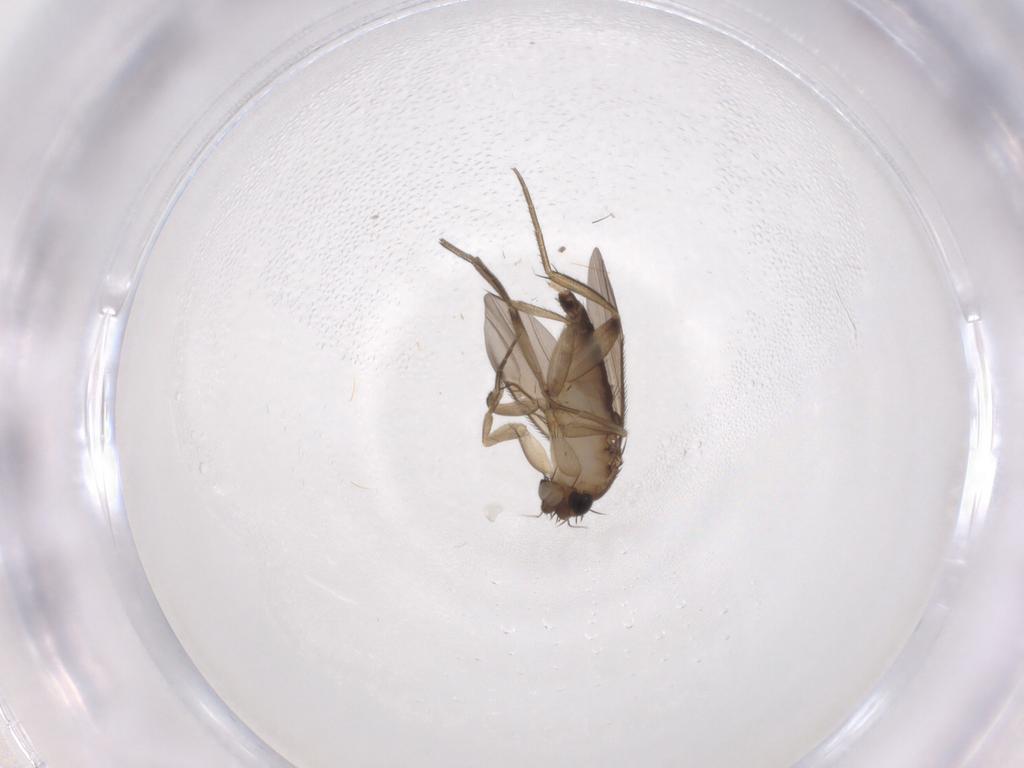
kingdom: Animalia
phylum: Arthropoda
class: Insecta
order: Diptera
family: Phoridae
